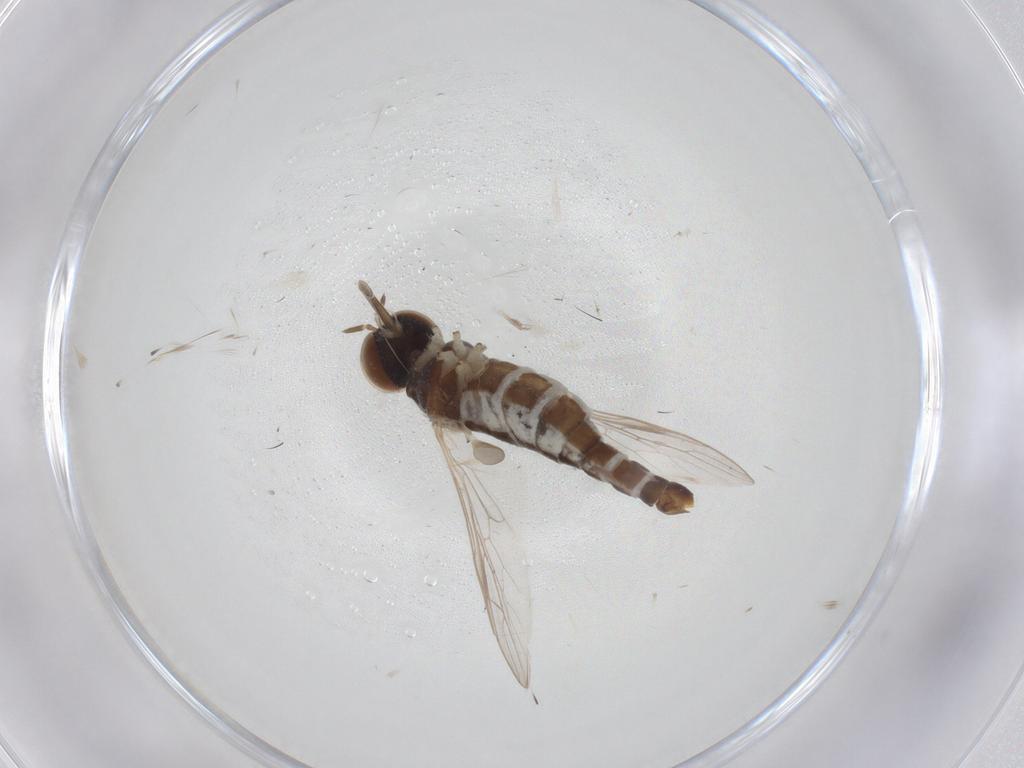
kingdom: Animalia
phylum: Arthropoda
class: Insecta
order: Diptera
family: Scenopinidae
